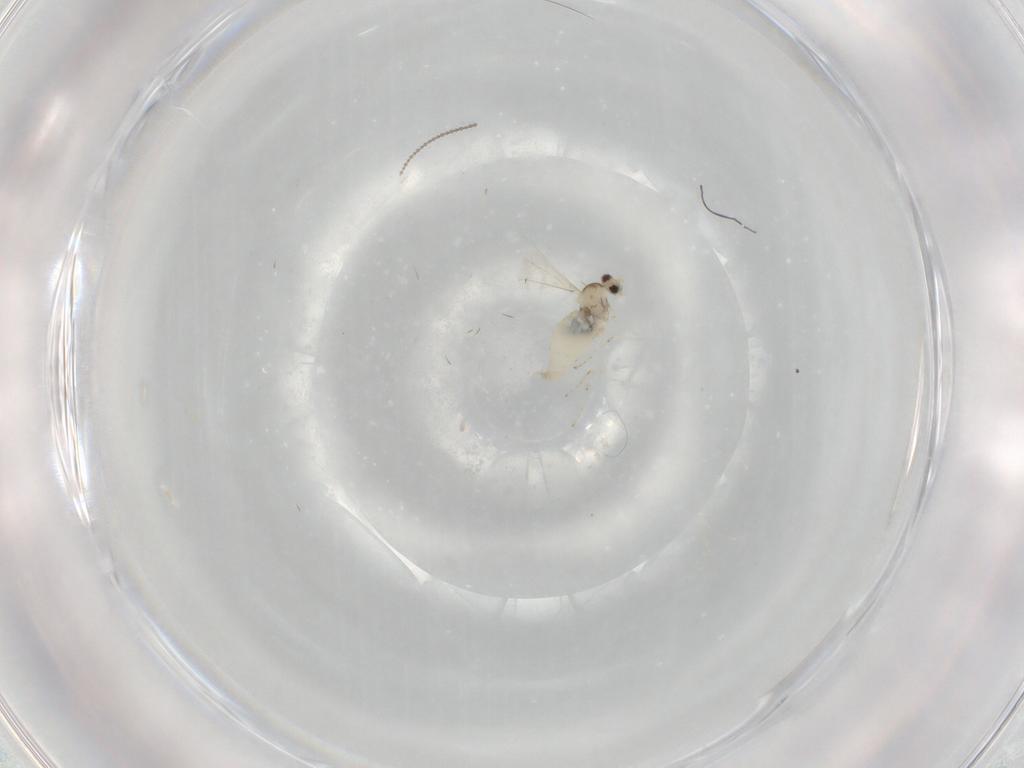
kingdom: Animalia
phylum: Arthropoda
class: Insecta
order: Diptera
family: Cecidomyiidae
